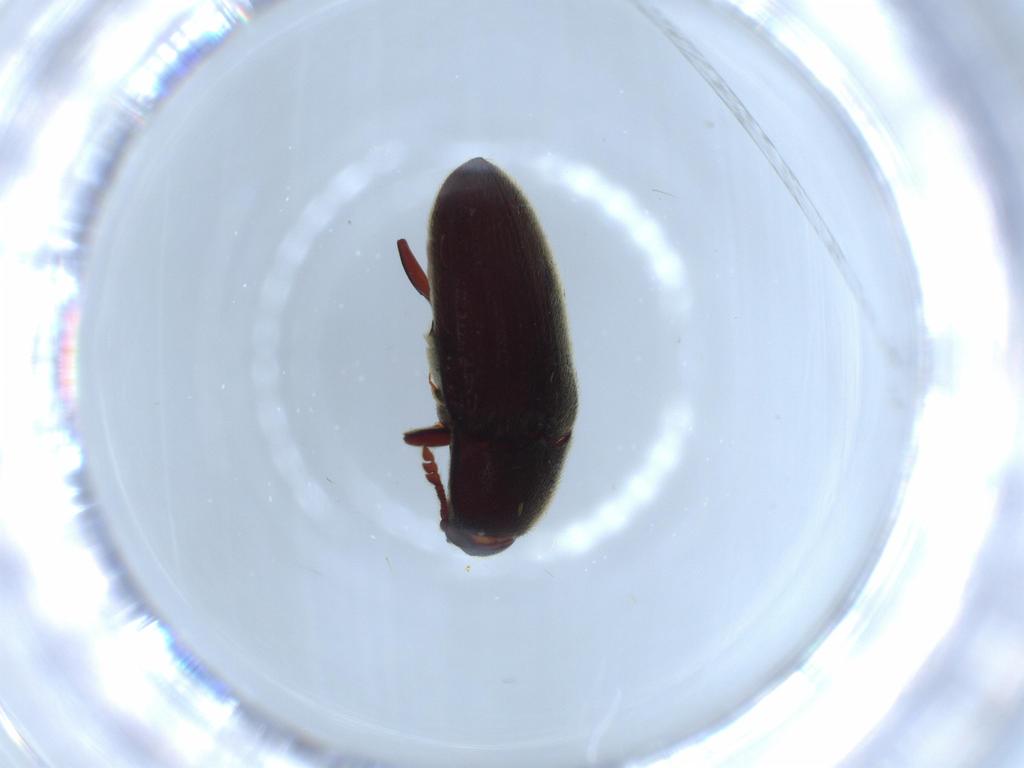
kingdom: Animalia
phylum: Arthropoda
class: Insecta
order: Coleoptera
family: Throscidae
